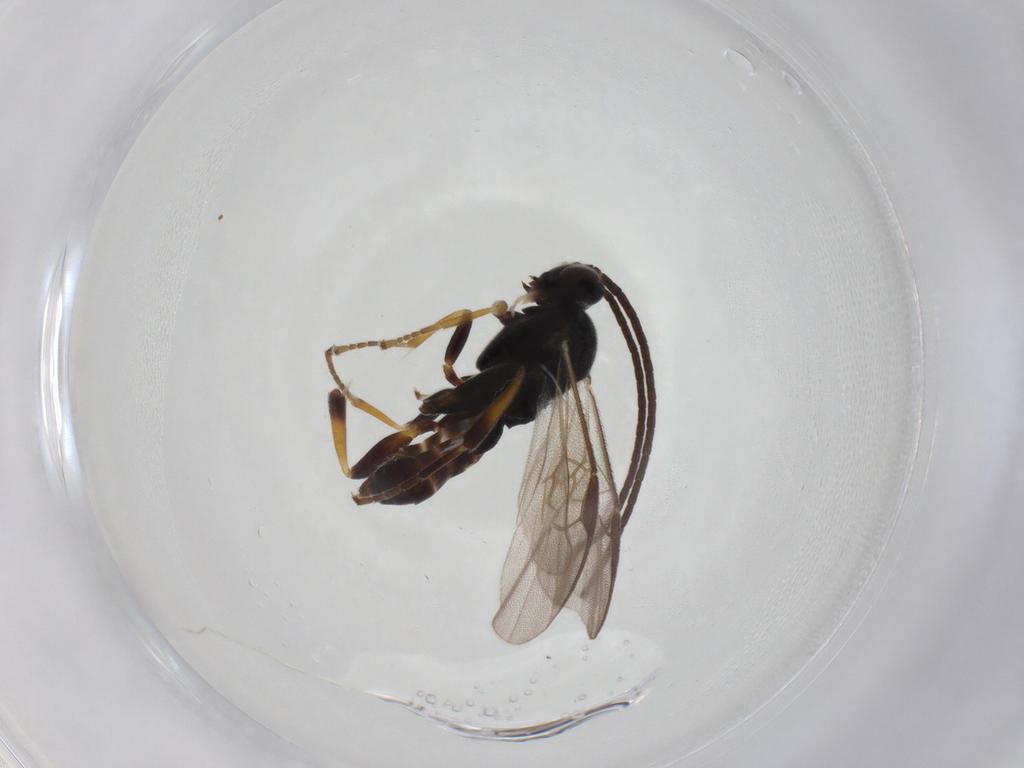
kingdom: Animalia
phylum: Arthropoda
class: Insecta
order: Hymenoptera
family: Braconidae
